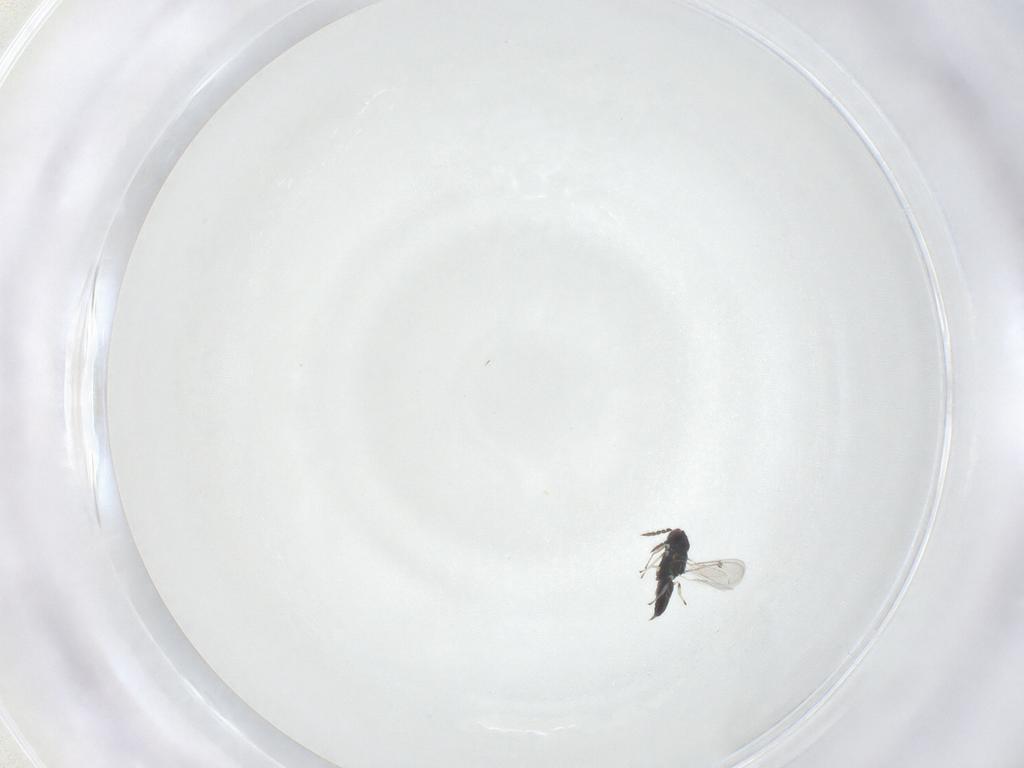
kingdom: Animalia
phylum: Arthropoda
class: Insecta
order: Hymenoptera
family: Eulophidae
